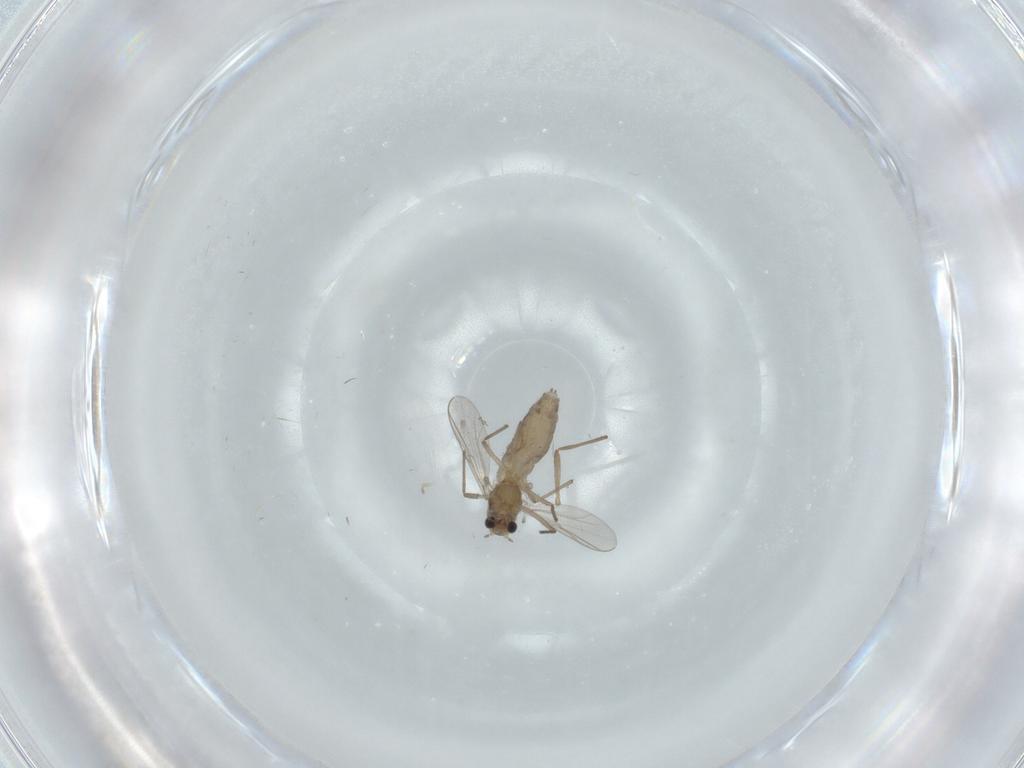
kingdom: Animalia
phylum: Arthropoda
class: Insecta
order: Diptera
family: Chironomidae
